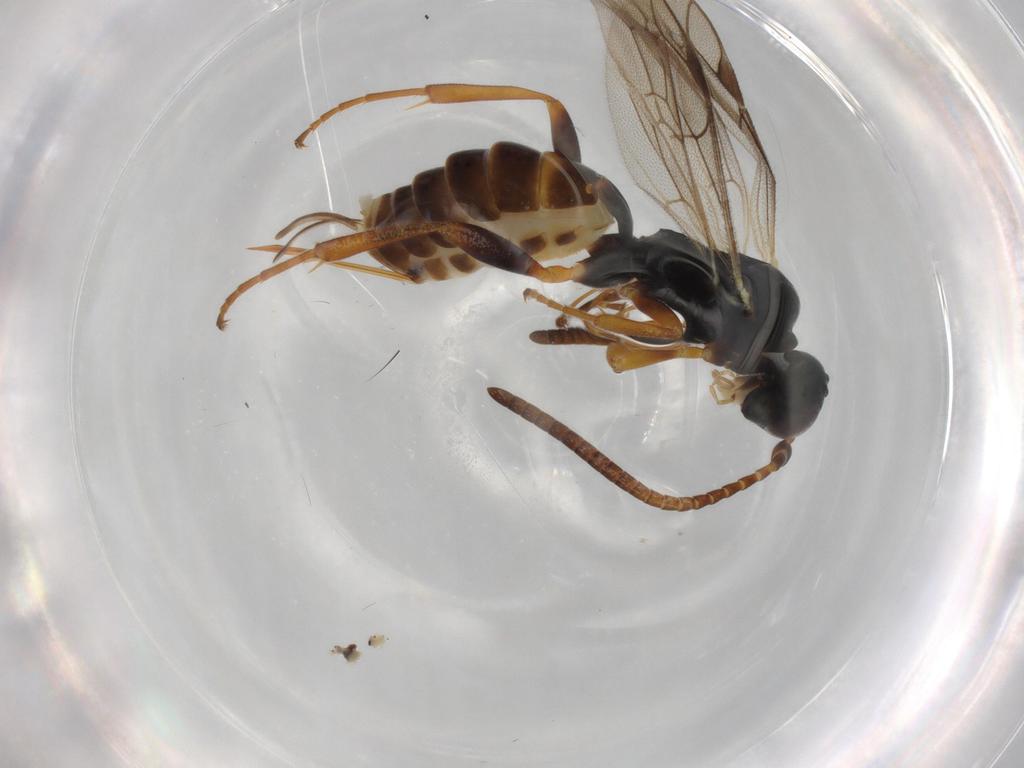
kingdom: Animalia
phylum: Arthropoda
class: Insecta
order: Hymenoptera
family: Ichneumonidae
